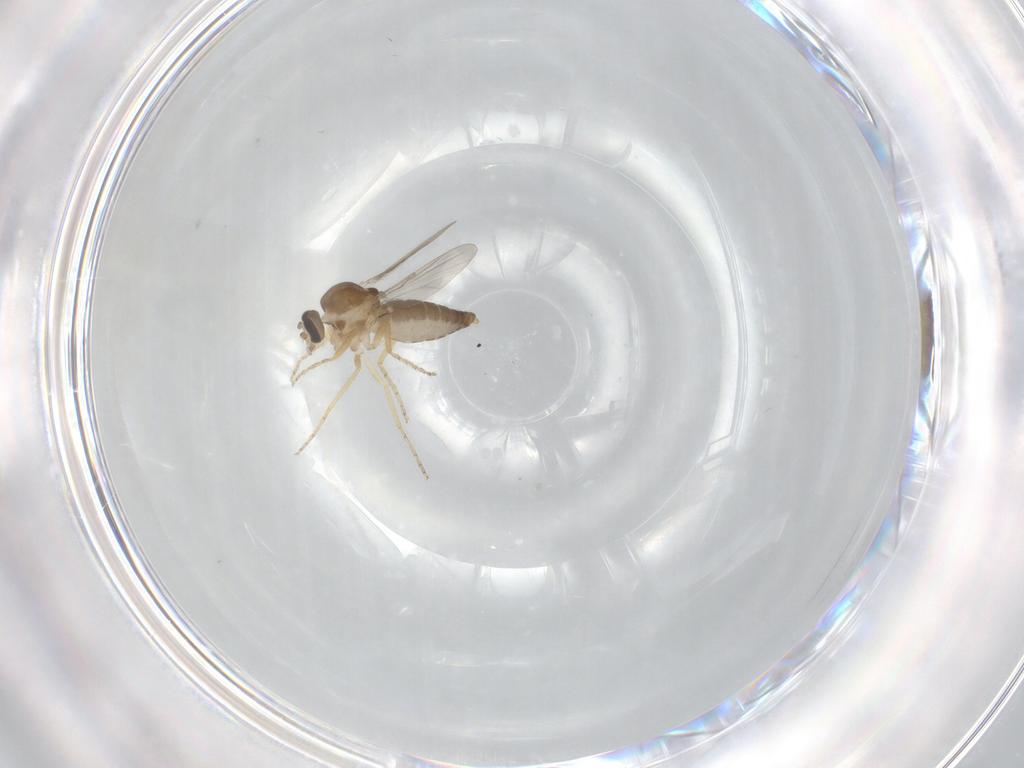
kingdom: Animalia
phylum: Arthropoda
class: Insecta
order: Diptera
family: Ceratopogonidae
